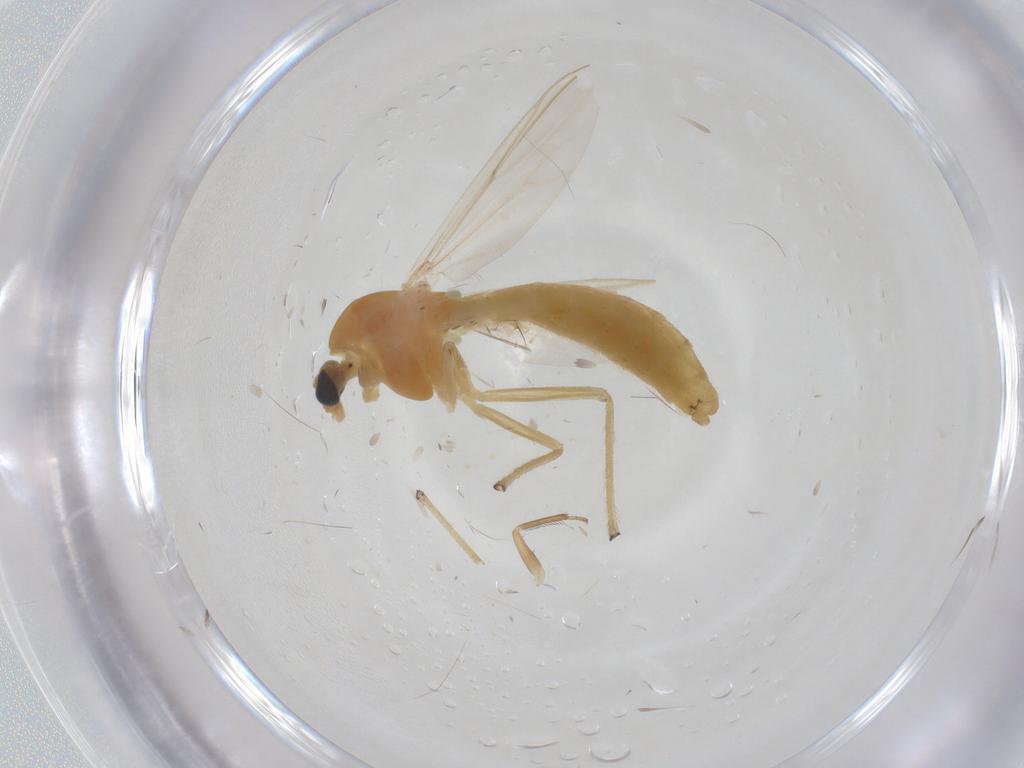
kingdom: Animalia
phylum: Arthropoda
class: Insecta
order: Diptera
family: Chironomidae
